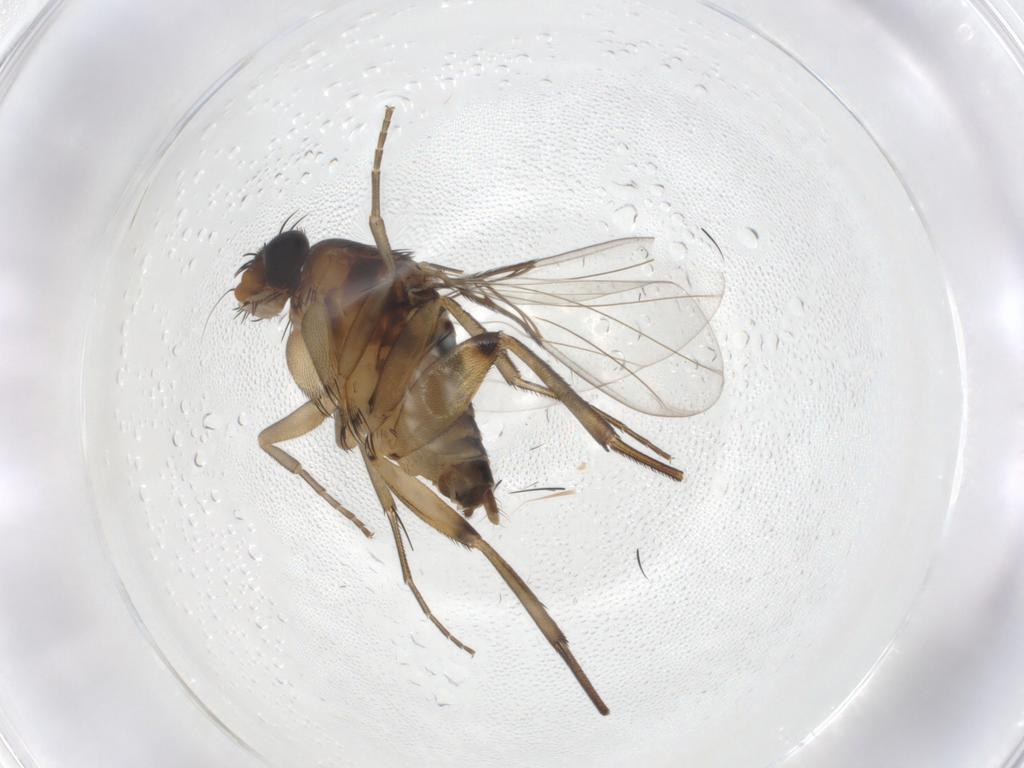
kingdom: Animalia
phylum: Arthropoda
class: Insecta
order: Diptera
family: Phoridae
